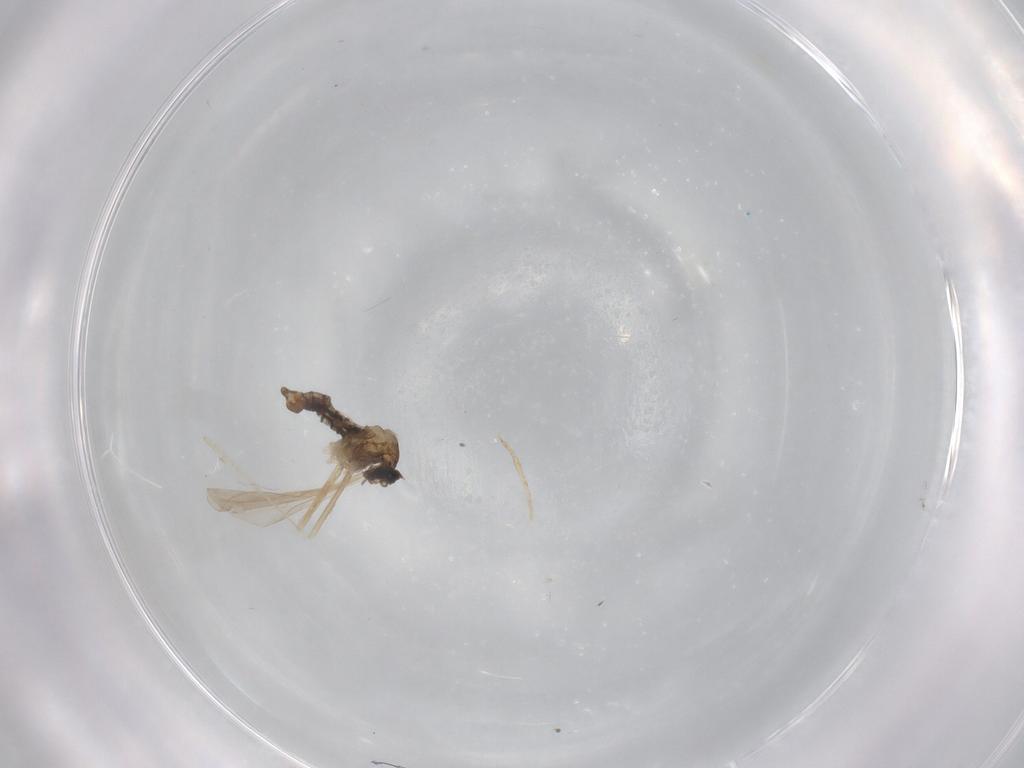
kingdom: Animalia
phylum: Arthropoda
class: Insecta
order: Diptera
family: Cecidomyiidae
